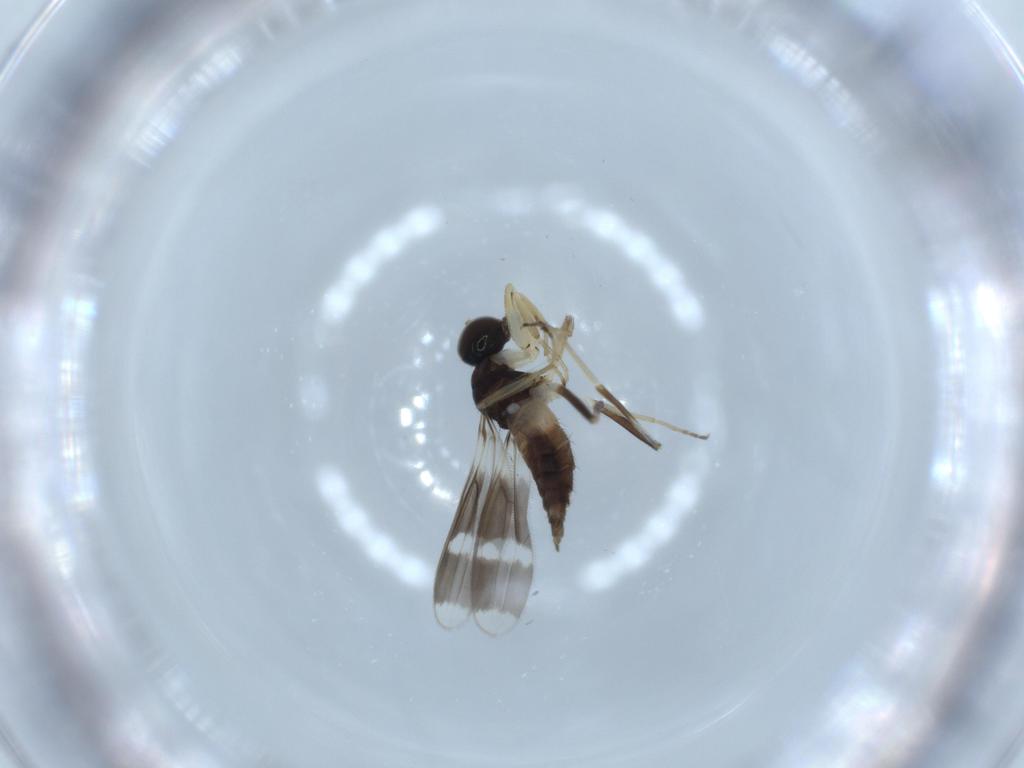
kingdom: Animalia
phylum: Arthropoda
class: Insecta
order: Diptera
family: Hybotidae
